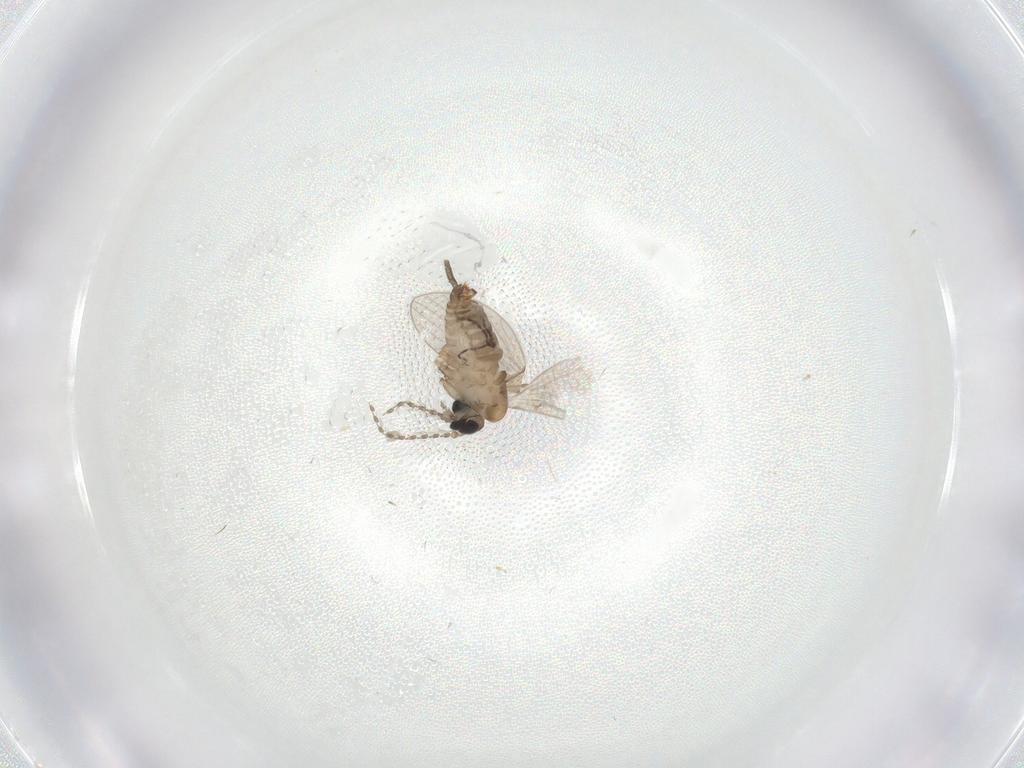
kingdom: Animalia
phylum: Arthropoda
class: Insecta
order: Diptera
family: Psychodidae
